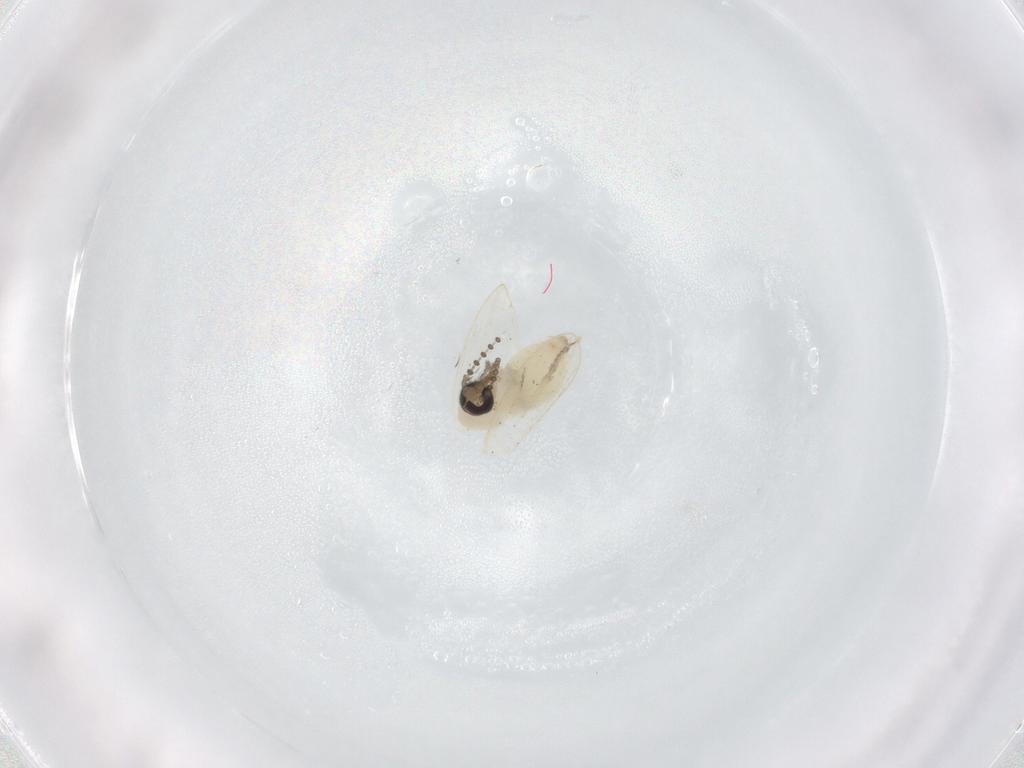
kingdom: Animalia
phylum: Arthropoda
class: Insecta
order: Diptera
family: Psychodidae
